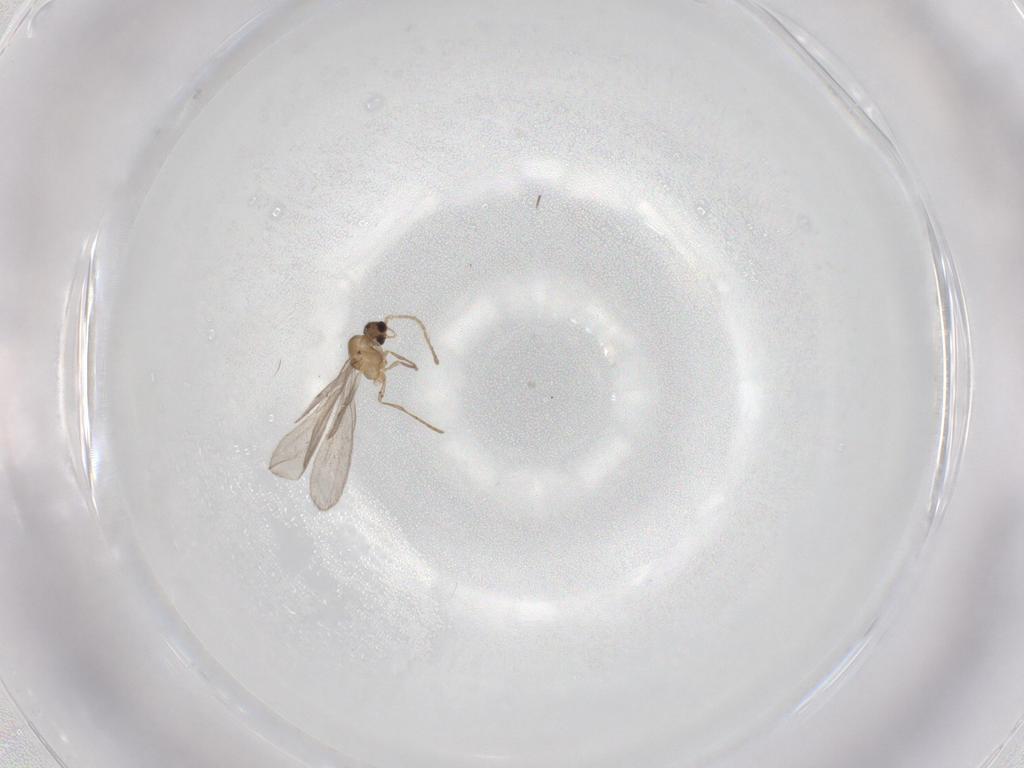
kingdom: Animalia
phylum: Arthropoda
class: Insecta
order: Hymenoptera
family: Formicidae
